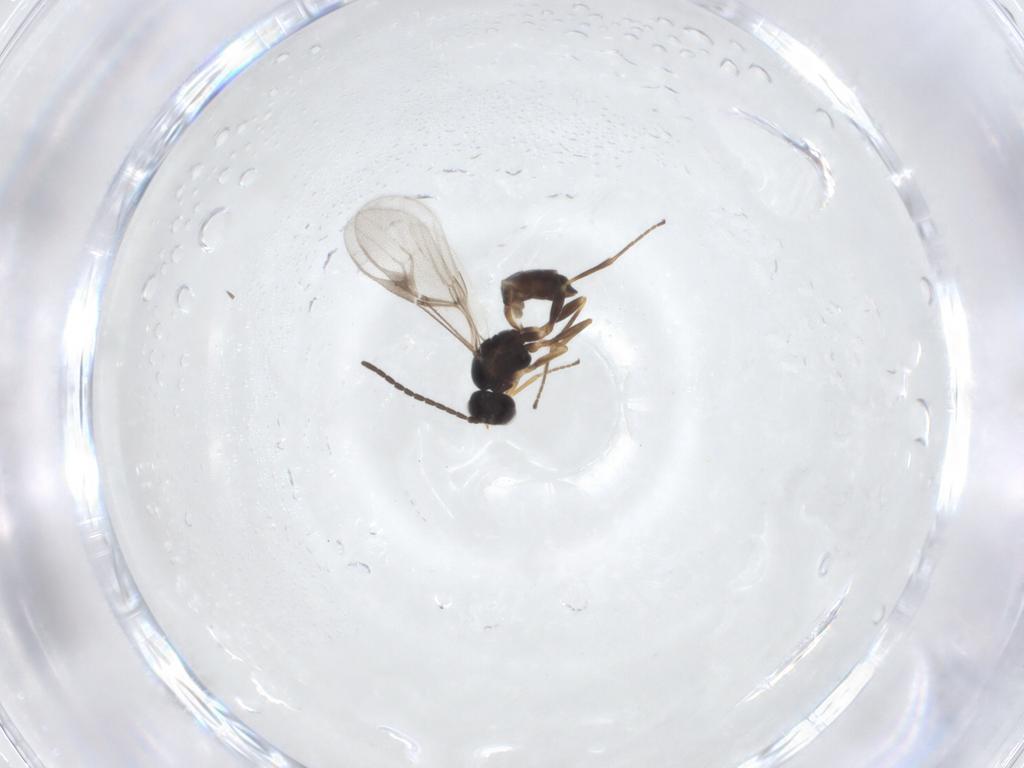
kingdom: Animalia
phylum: Arthropoda
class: Insecta
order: Hymenoptera
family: Braconidae
